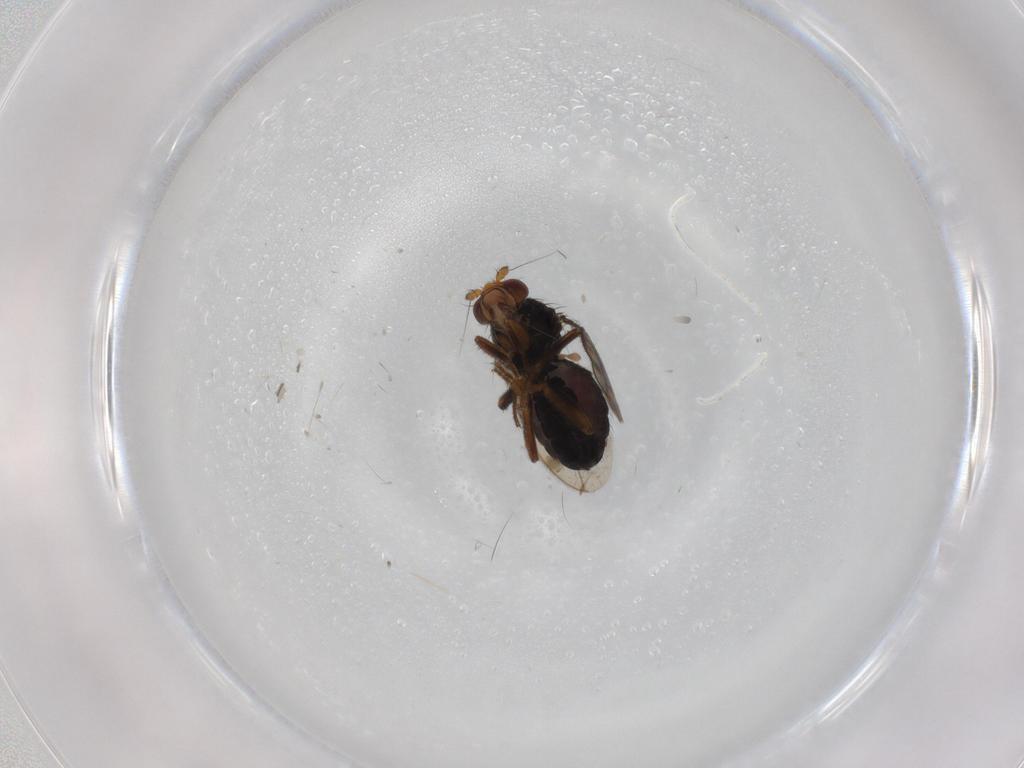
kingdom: Animalia
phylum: Arthropoda
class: Insecta
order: Diptera
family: Sphaeroceridae
